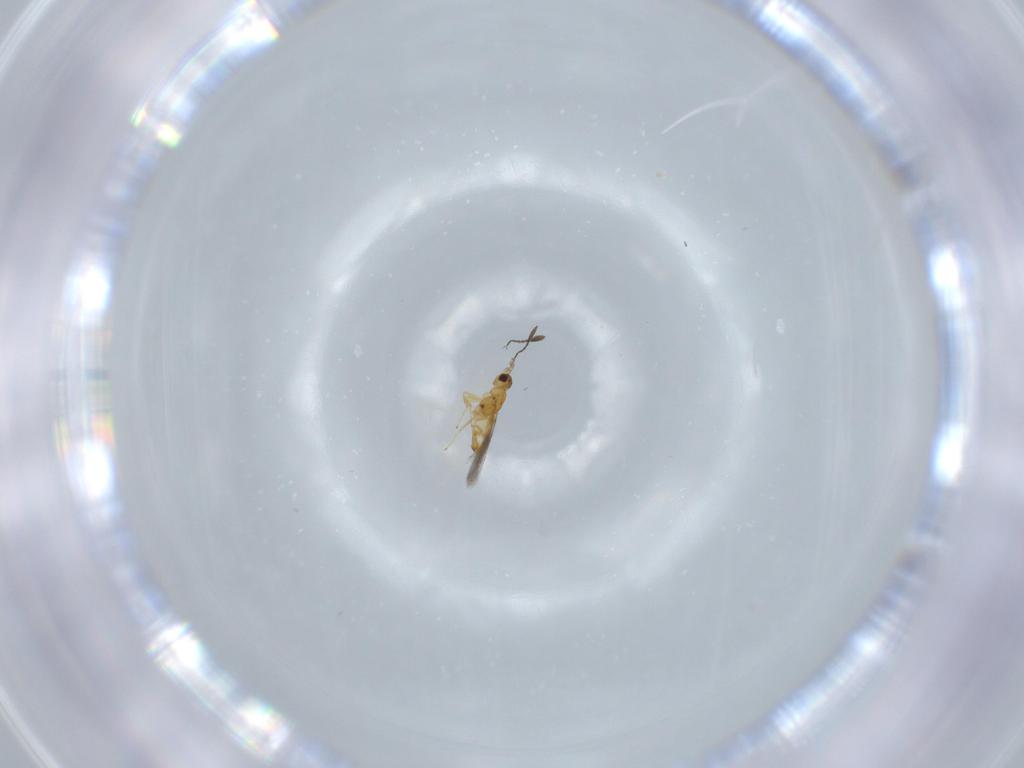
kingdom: Animalia
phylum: Arthropoda
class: Insecta
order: Hymenoptera
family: Mymaridae
